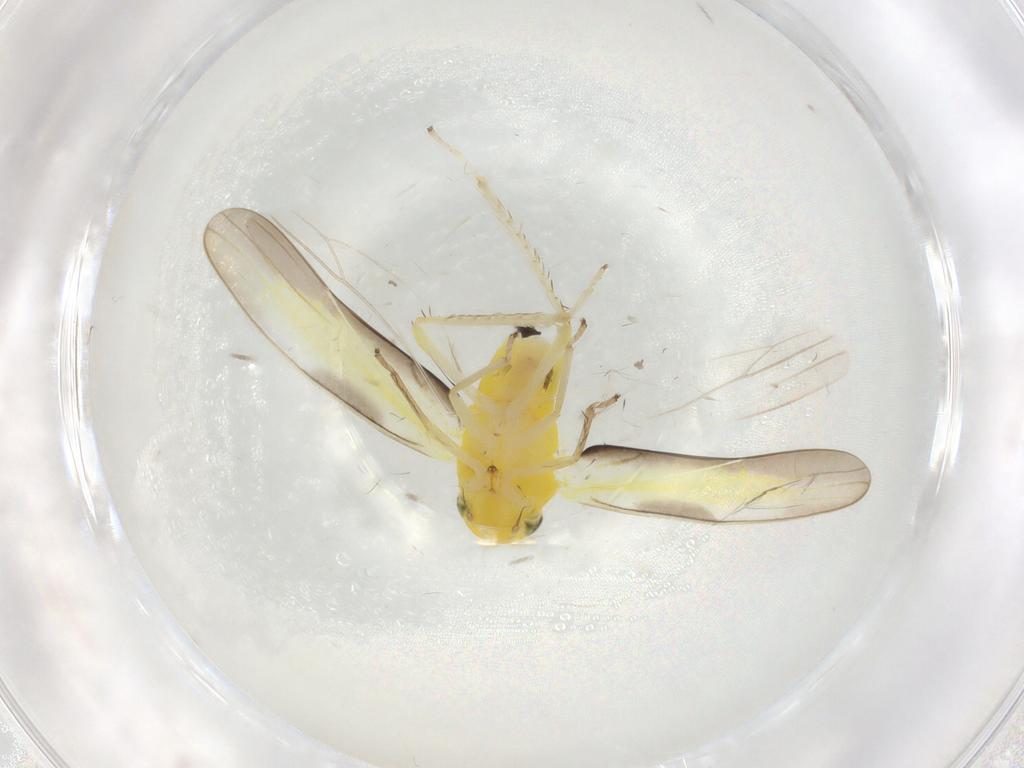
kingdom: Animalia
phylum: Arthropoda
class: Insecta
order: Hemiptera
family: Cicadellidae
